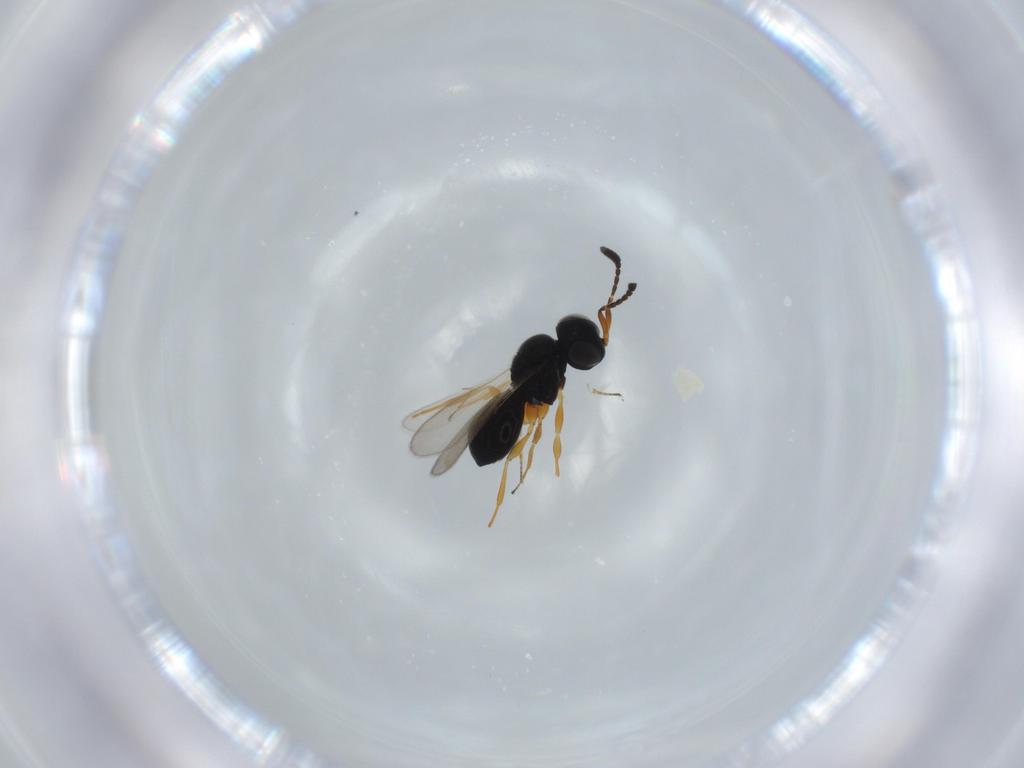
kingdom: Animalia
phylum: Arthropoda
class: Insecta
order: Hymenoptera
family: Scelionidae
